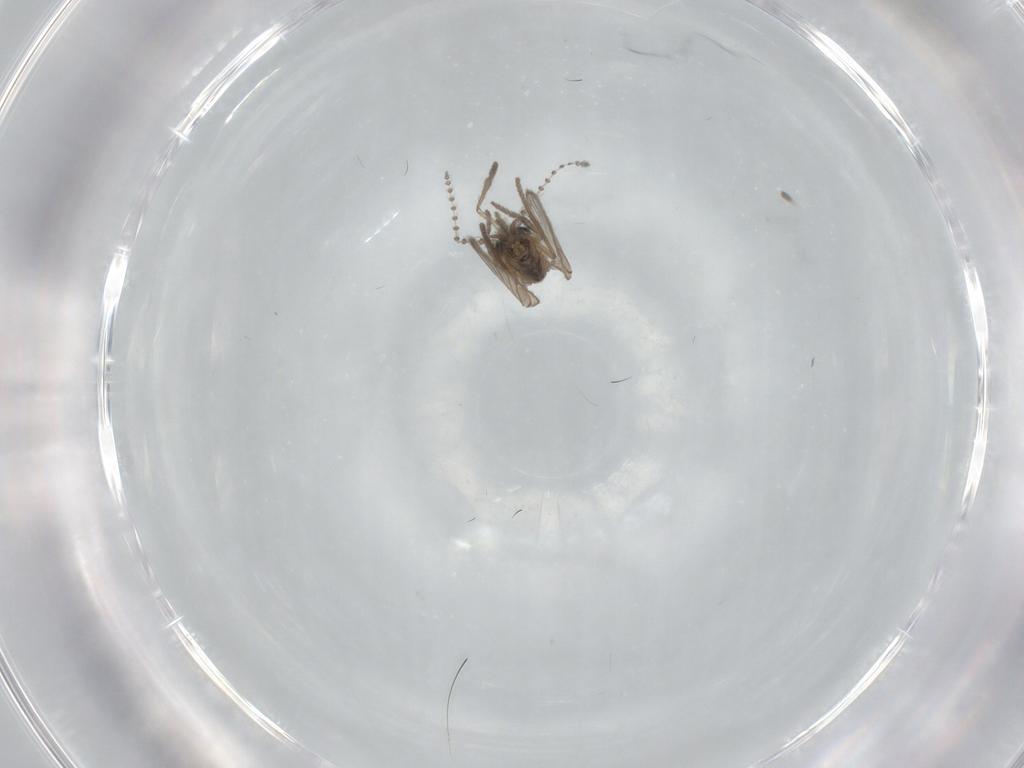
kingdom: Animalia
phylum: Arthropoda
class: Insecta
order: Diptera
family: Psychodidae
